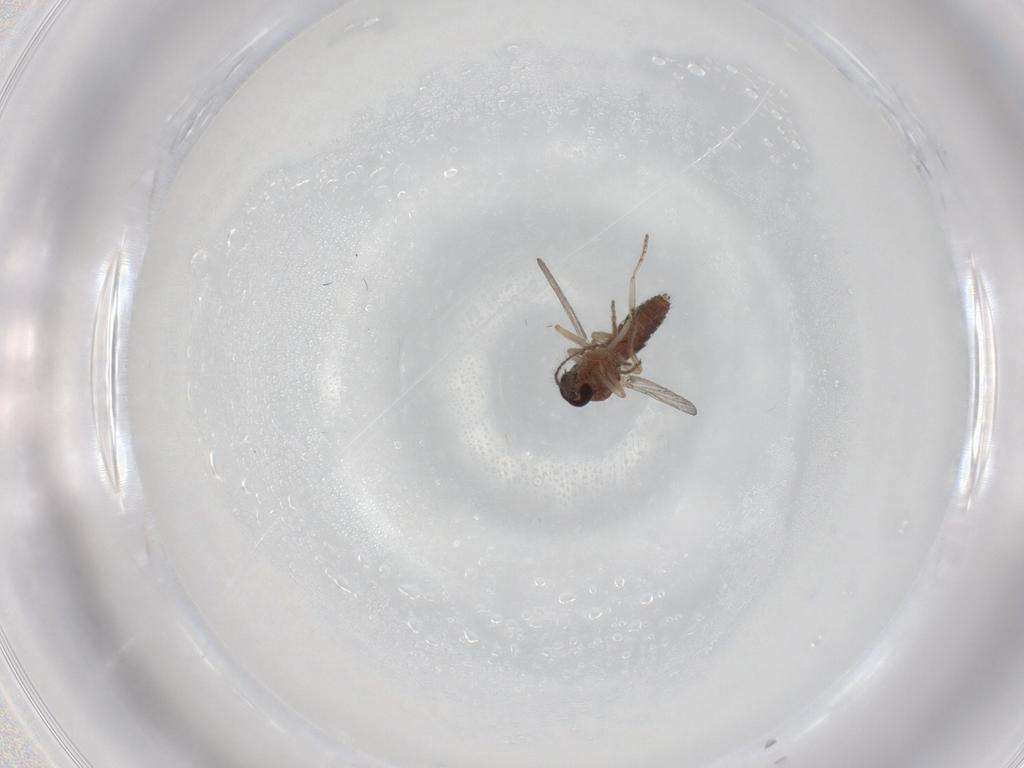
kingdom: Animalia
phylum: Arthropoda
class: Insecta
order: Diptera
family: Ceratopogonidae
